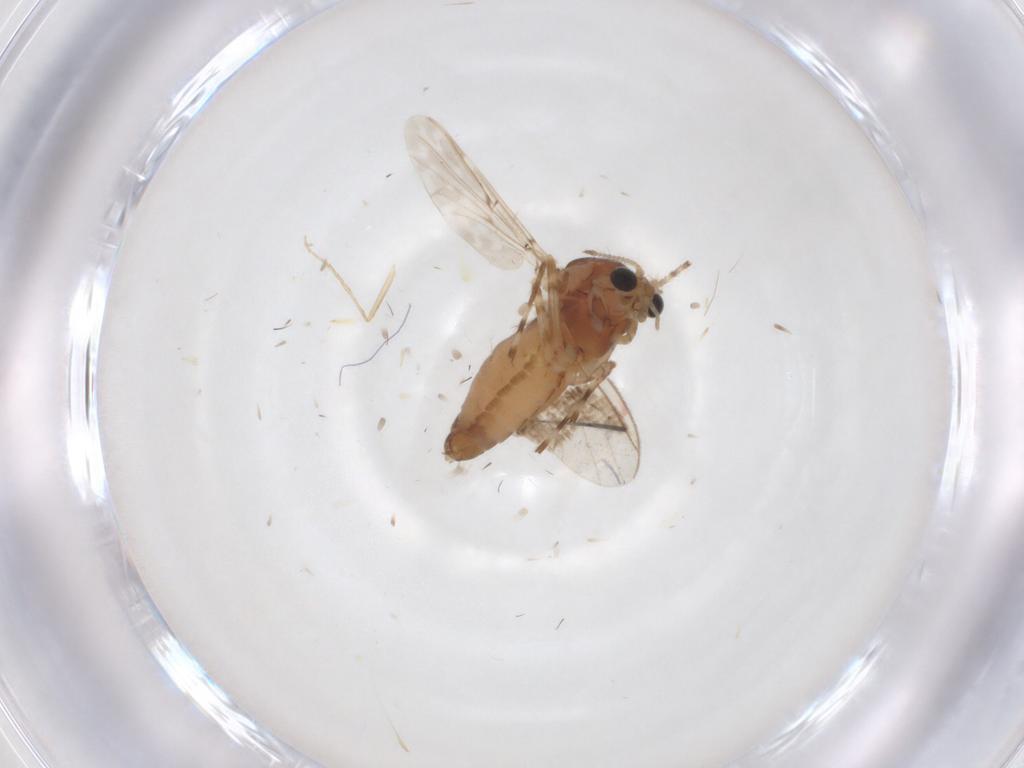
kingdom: Animalia
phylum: Arthropoda
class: Insecta
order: Diptera
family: Chironomidae
